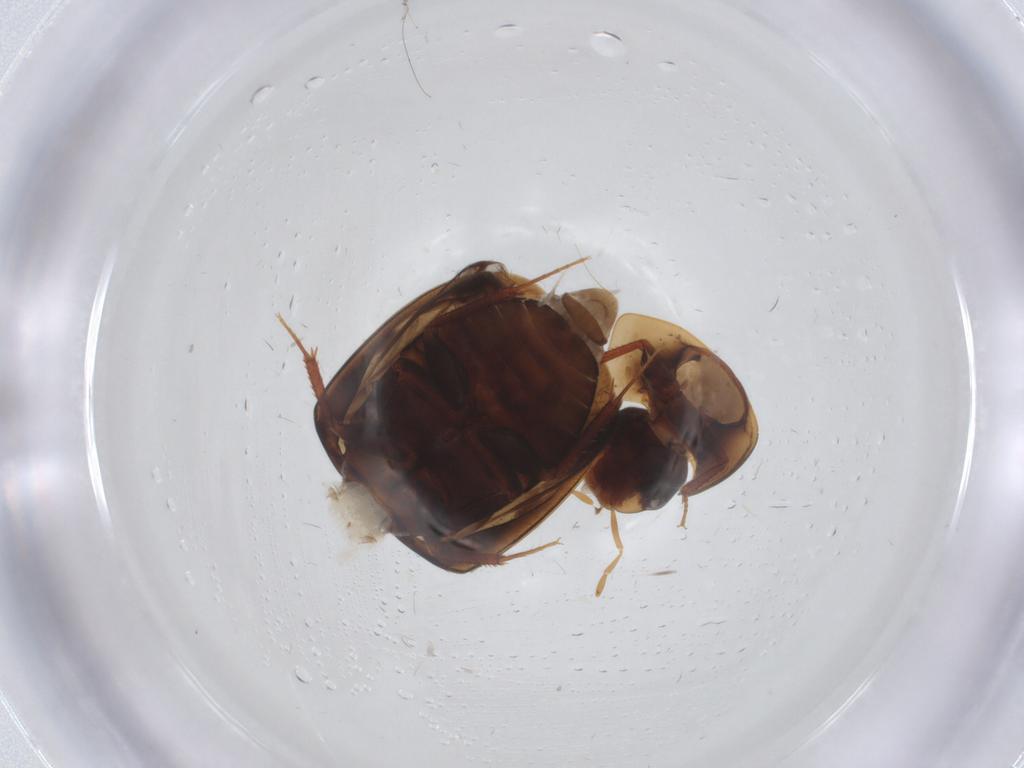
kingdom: Animalia
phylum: Arthropoda
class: Insecta
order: Coleoptera
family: Hydrophilidae
